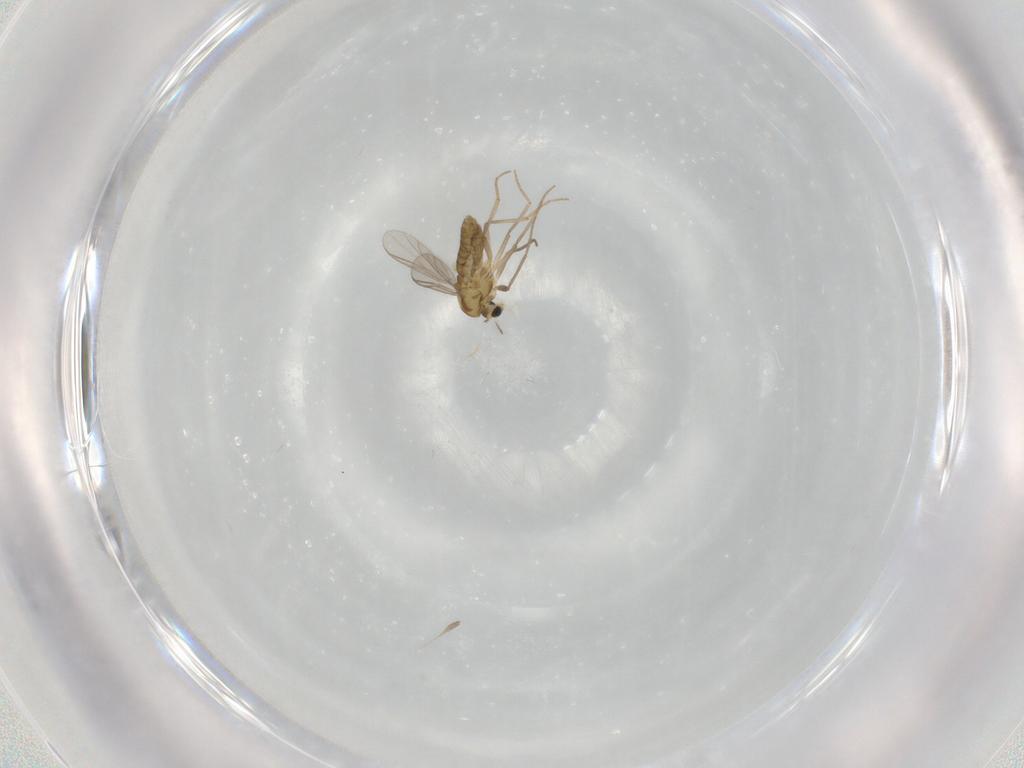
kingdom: Animalia
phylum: Arthropoda
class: Insecta
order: Diptera
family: Chironomidae
